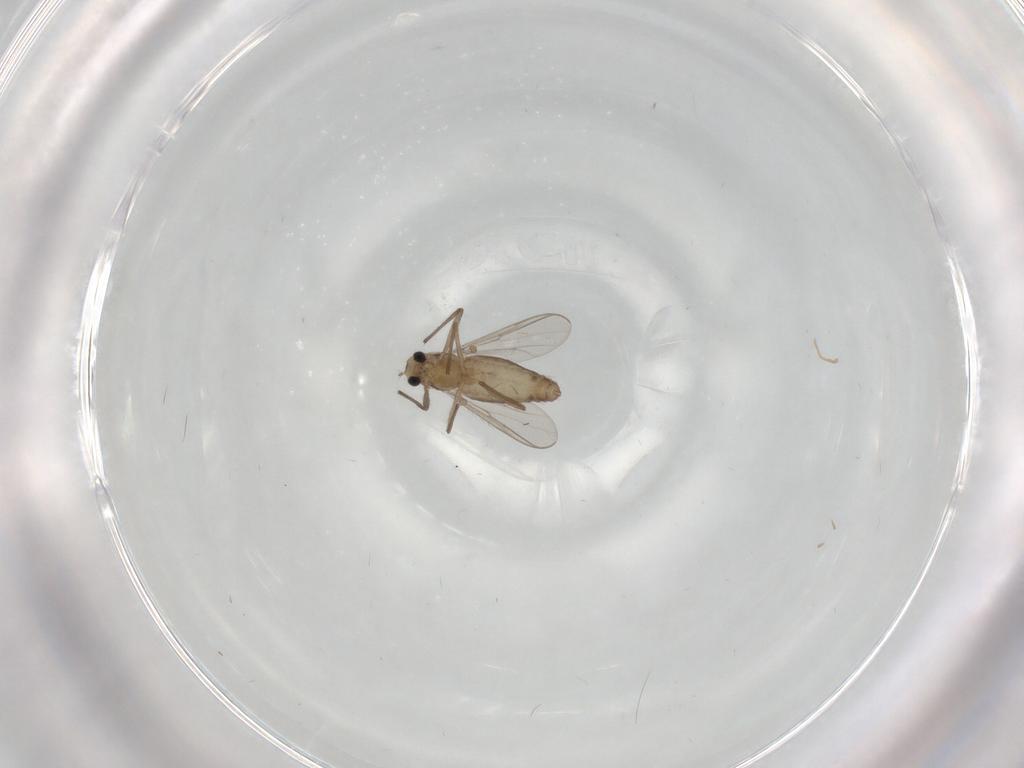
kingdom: Animalia
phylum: Arthropoda
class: Insecta
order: Diptera
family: Chironomidae
